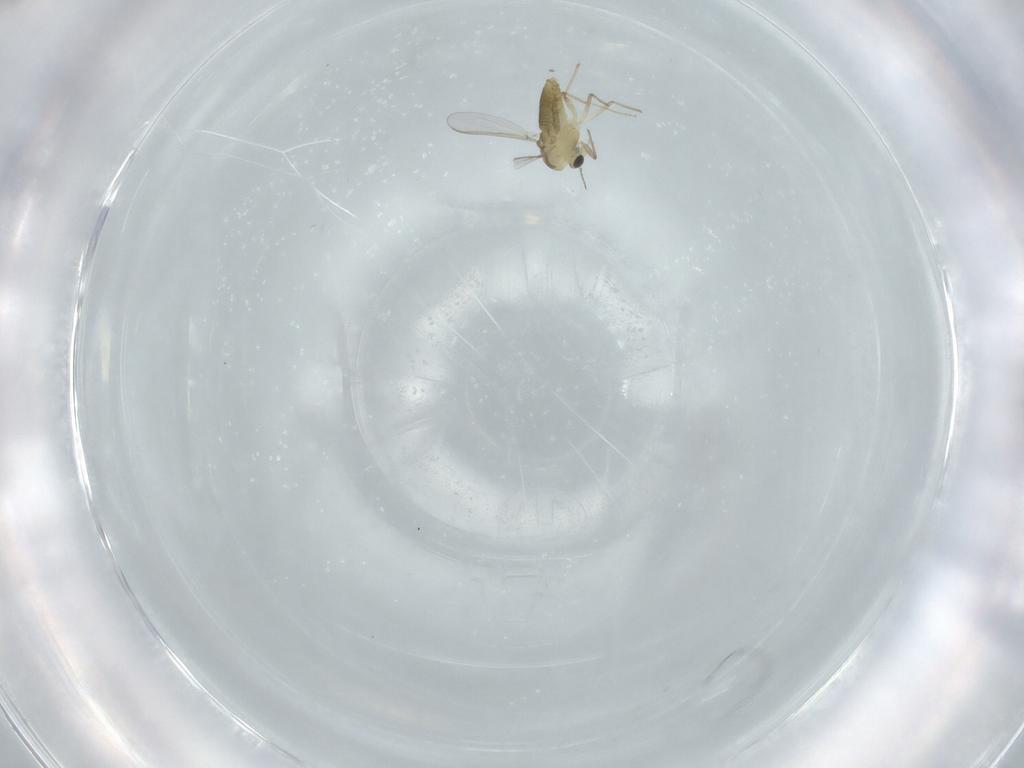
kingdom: Animalia
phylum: Arthropoda
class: Insecta
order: Diptera
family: Chironomidae
